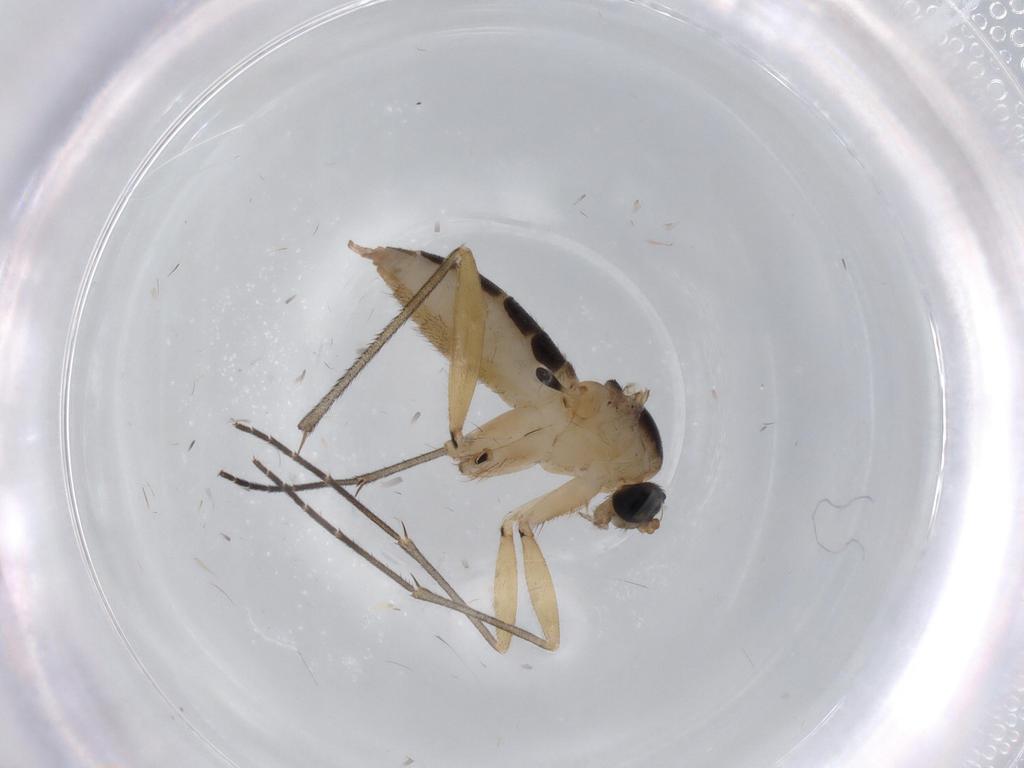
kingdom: Animalia
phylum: Arthropoda
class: Insecta
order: Diptera
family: Sciaridae
